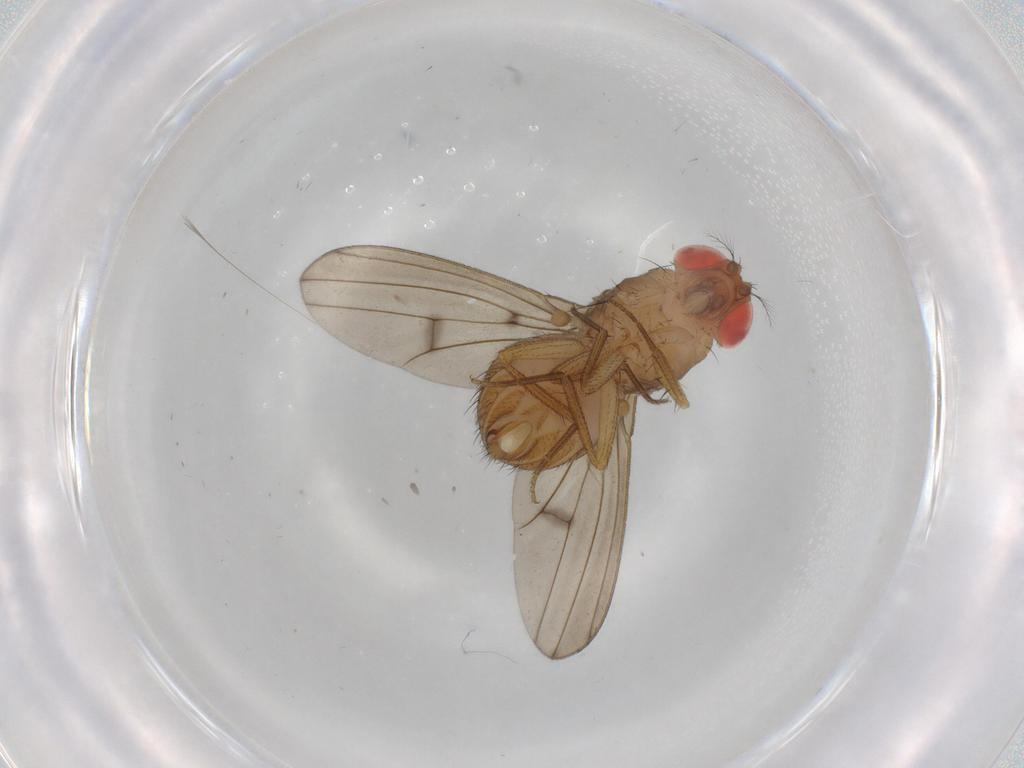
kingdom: Animalia
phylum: Arthropoda
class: Insecta
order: Diptera
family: Drosophilidae
